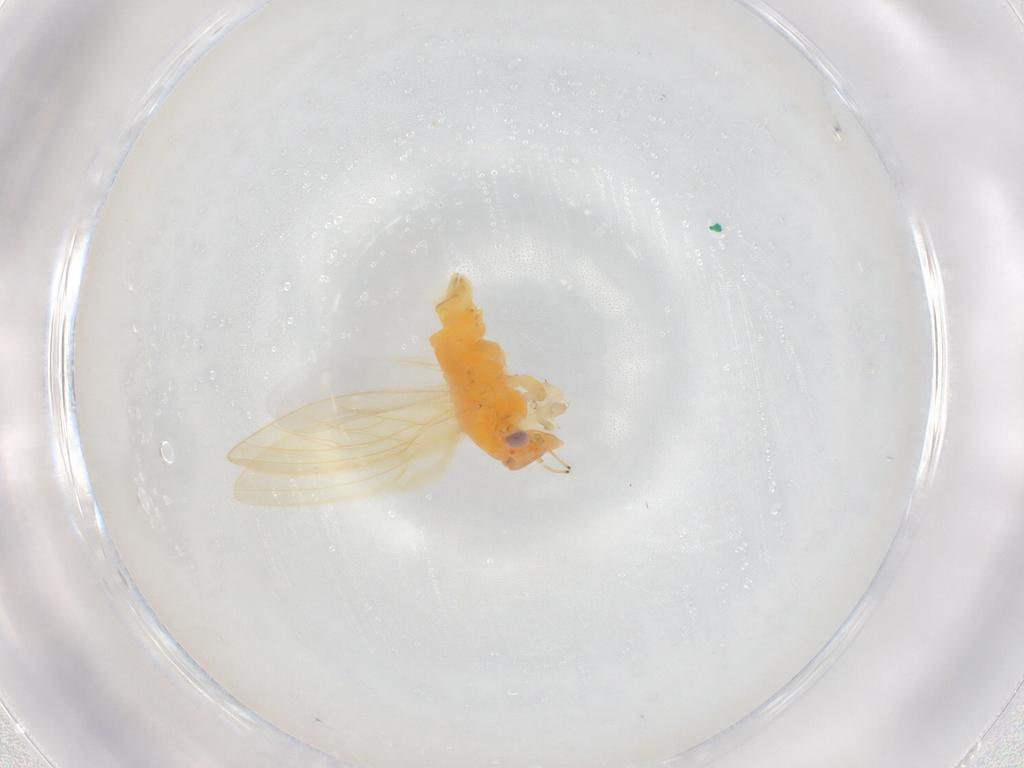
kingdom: Animalia
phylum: Arthropoda
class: Insecta
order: Hemiptera
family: Psyllidae
